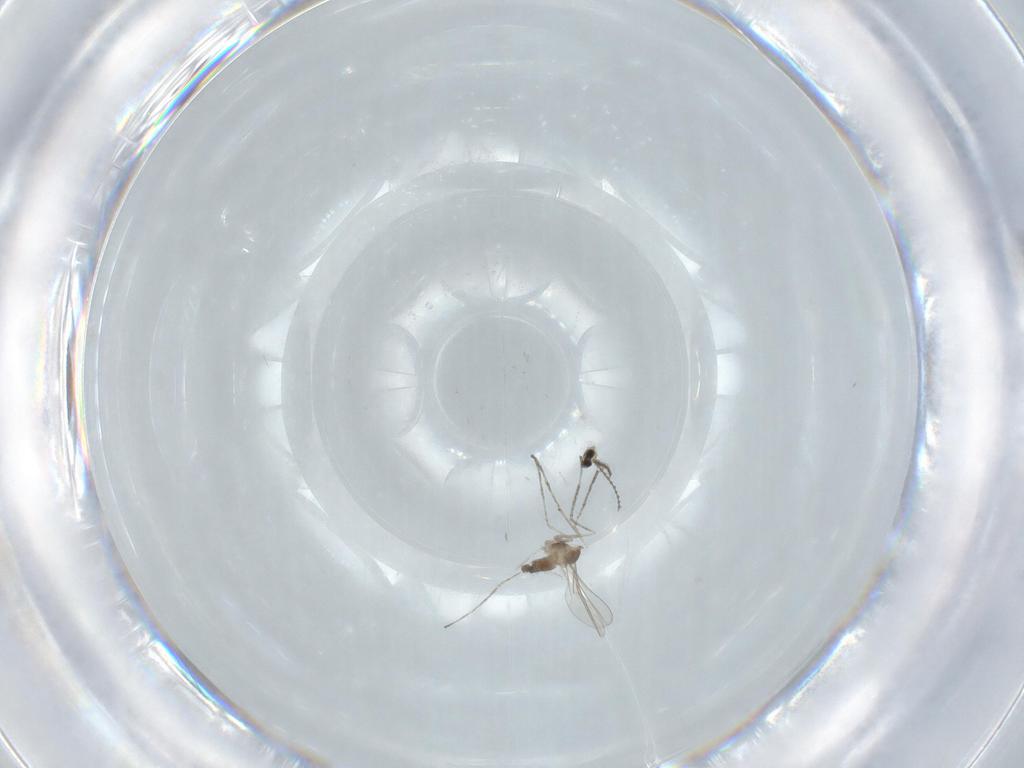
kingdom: Animalia
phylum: Arthropoda
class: Insecta
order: Diptera
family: Cecidomyiidae
